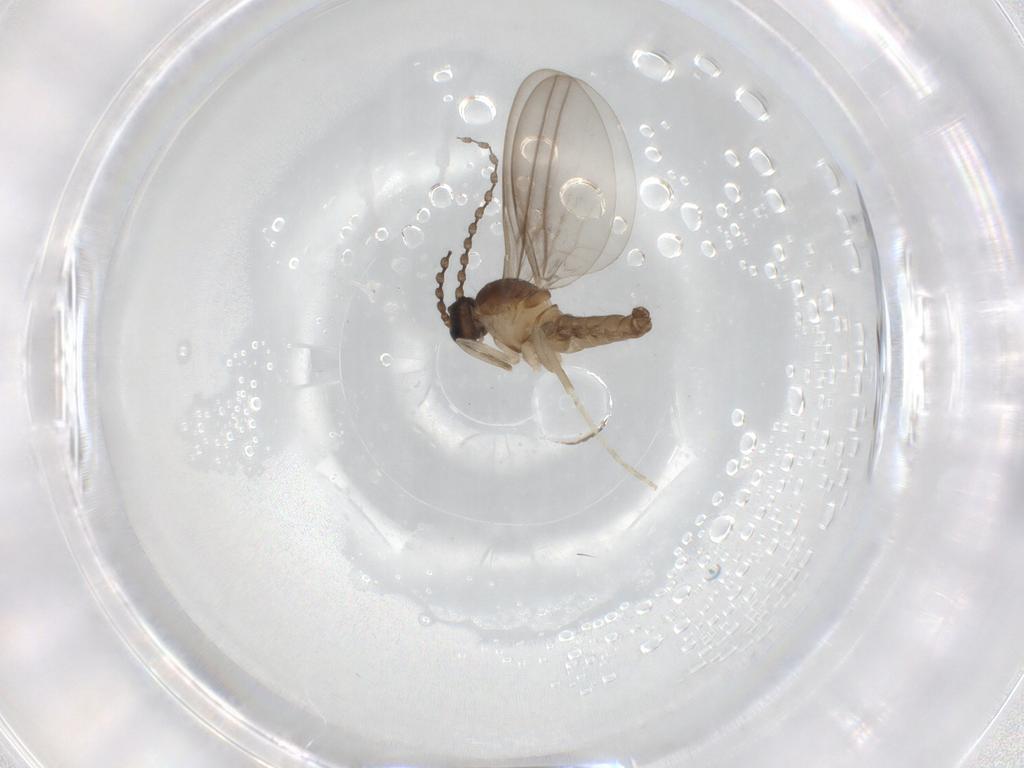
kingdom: Animalia
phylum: Arthropoda
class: Insecta
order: Diptera
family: Cecidomyiidae
